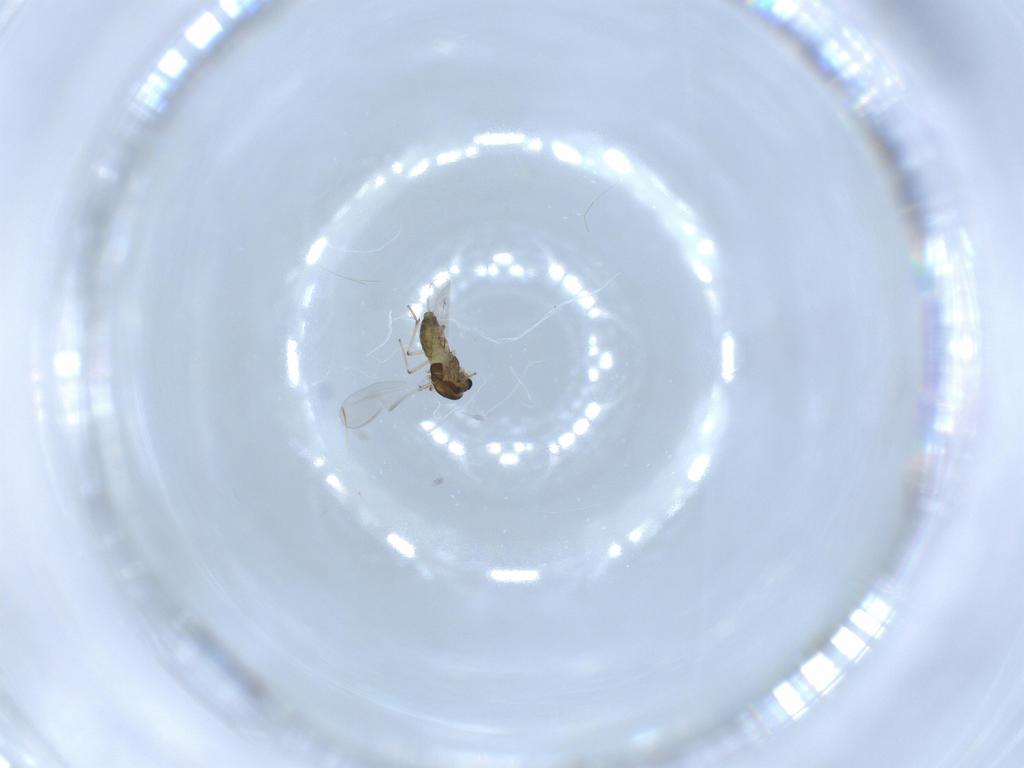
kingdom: Animalia
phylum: Arthropoda
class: Insecta
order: Diptera
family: Chironomidae
